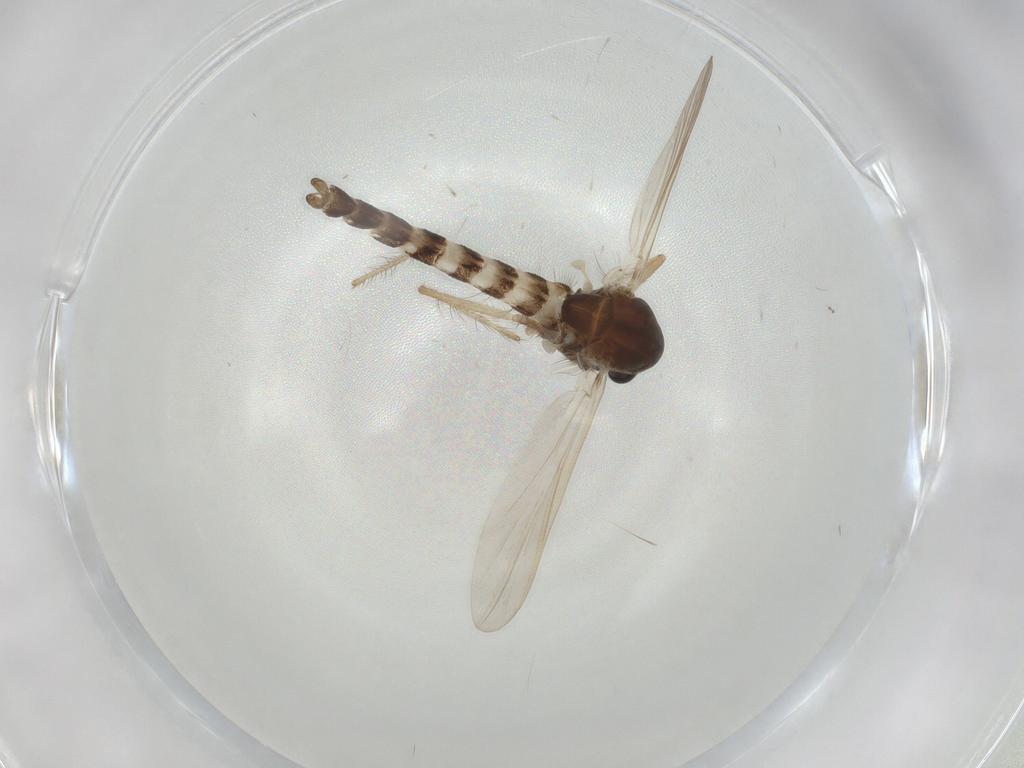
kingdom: Animalia
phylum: Arthropoda
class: Insecta
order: Diptera
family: Chironomidae
